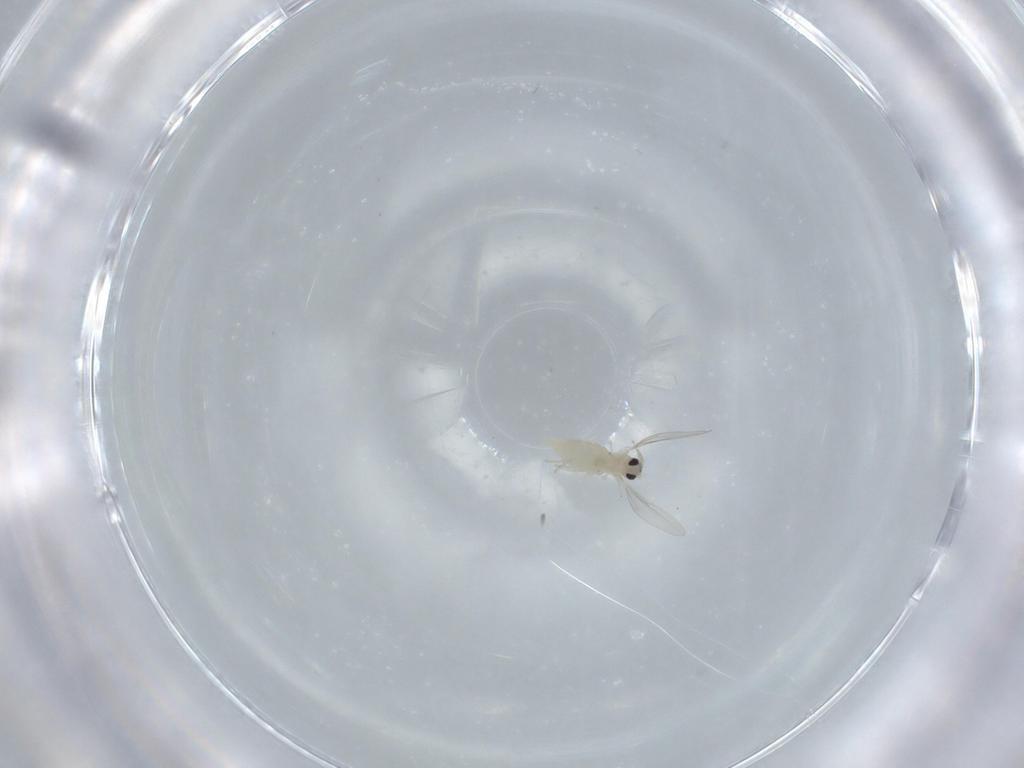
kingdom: Animalia
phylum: Arthropoda
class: Insecta
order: Diptera
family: Cecidomyiidae
